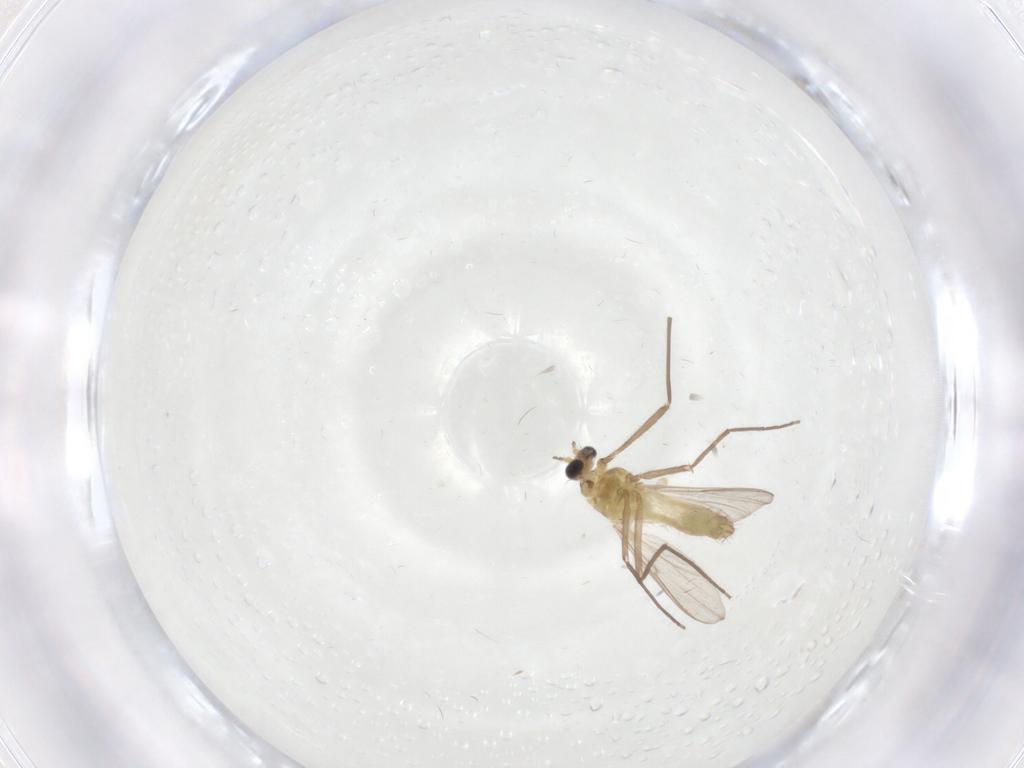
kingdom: Animalia
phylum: Arthropoda
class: Insecta
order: Diptera
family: Chironomidae
